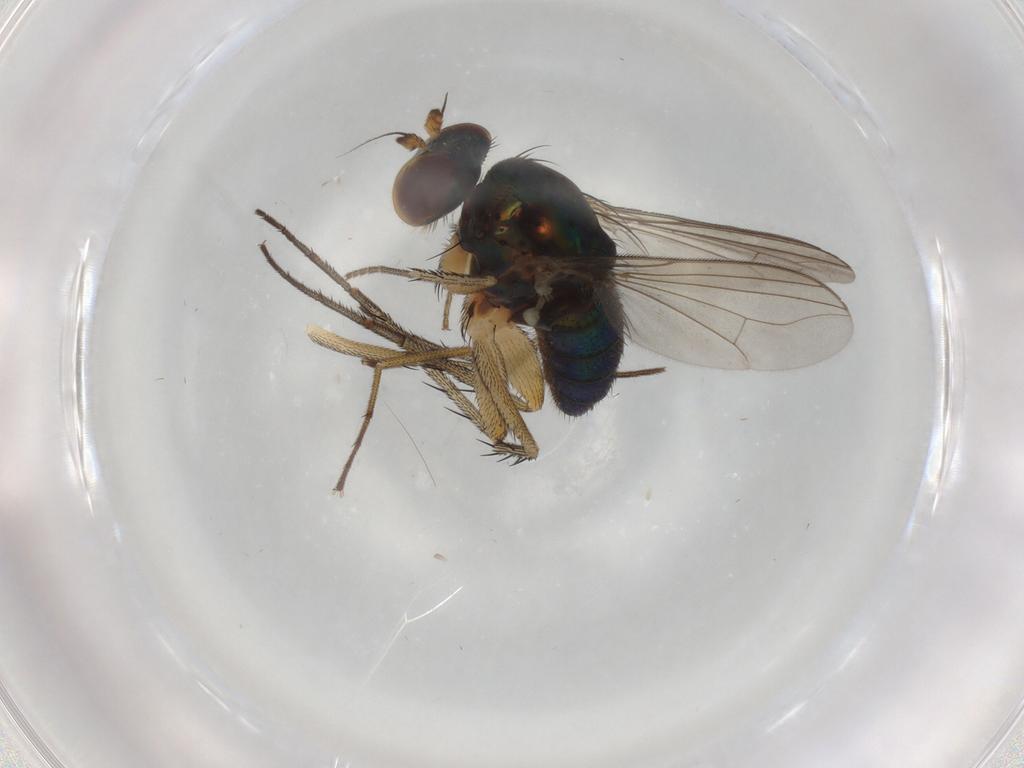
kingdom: Animalia
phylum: Arthropoda
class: Insecta
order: Diptera
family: Dolichopodidae
